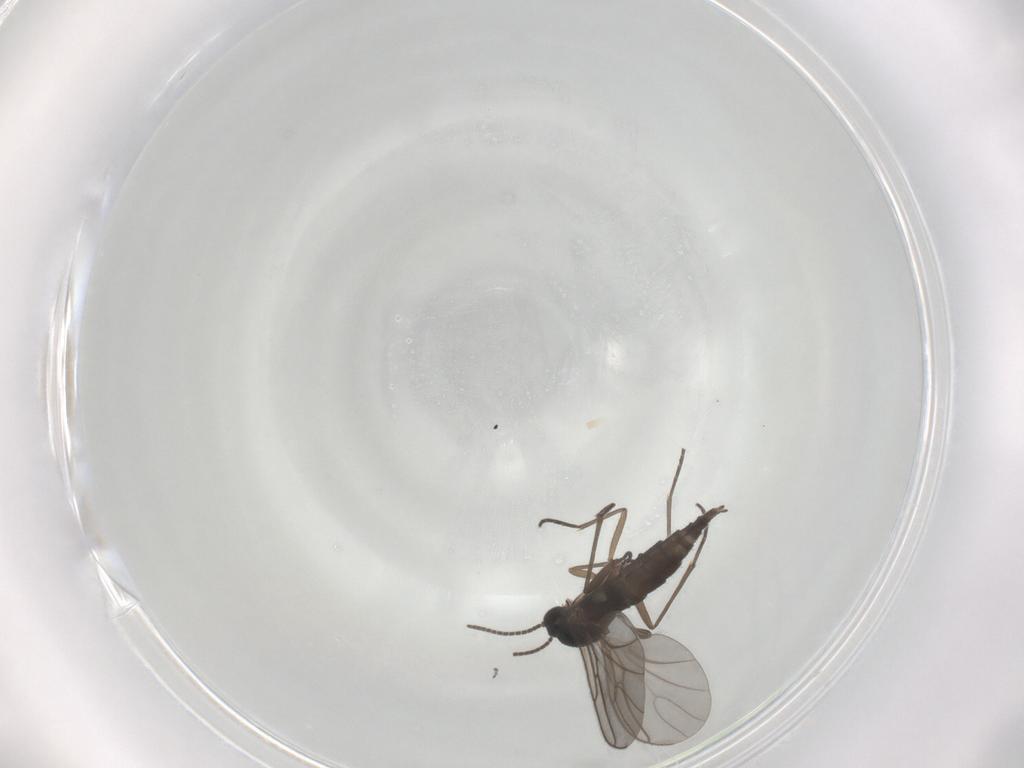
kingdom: Animalia
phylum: Arthropoda
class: Insecta
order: Diptera
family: Sciaridae
